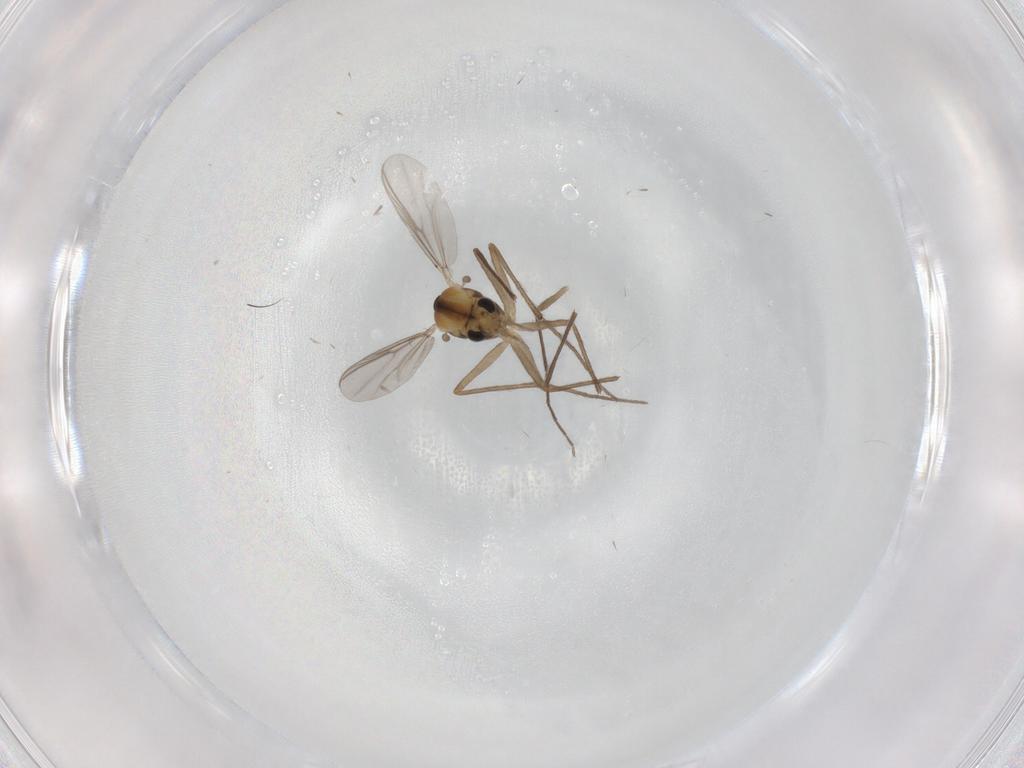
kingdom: Animalia
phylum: Arthropoda
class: Insecta
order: Diptera
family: Chironomidae
